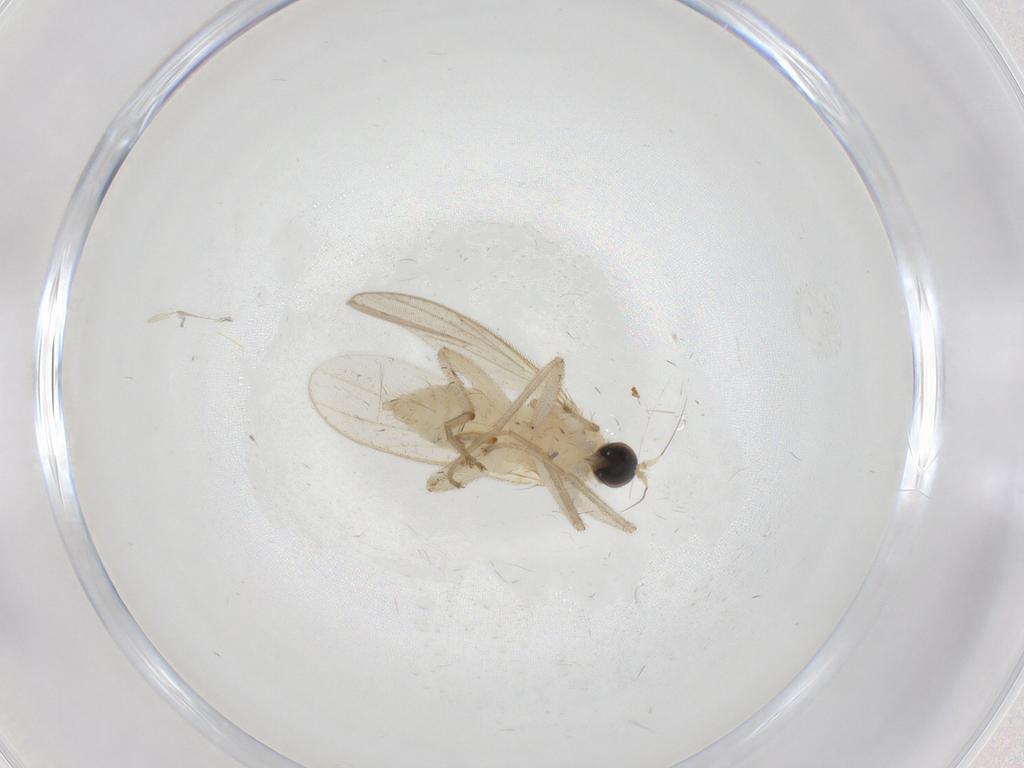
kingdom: Animalia
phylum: Arthropoda
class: Insecta
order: Diptera
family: Hybotidae
